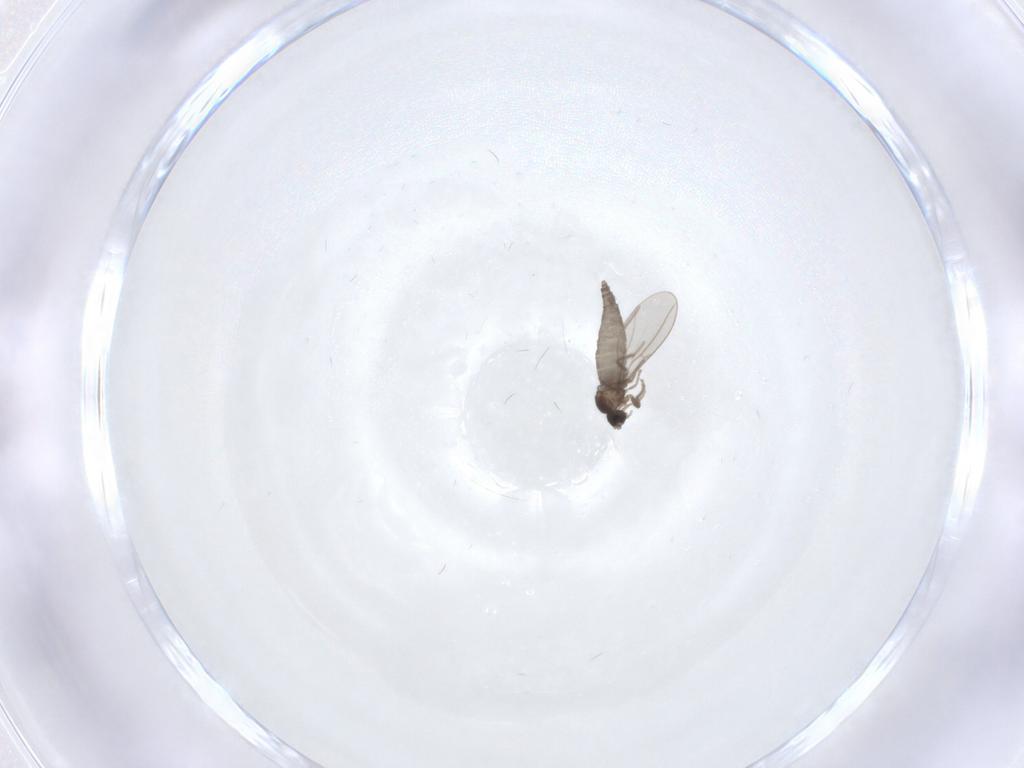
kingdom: Animalia
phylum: Arthropoda
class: Insecta
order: Diptera
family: Cecidomyiidae
